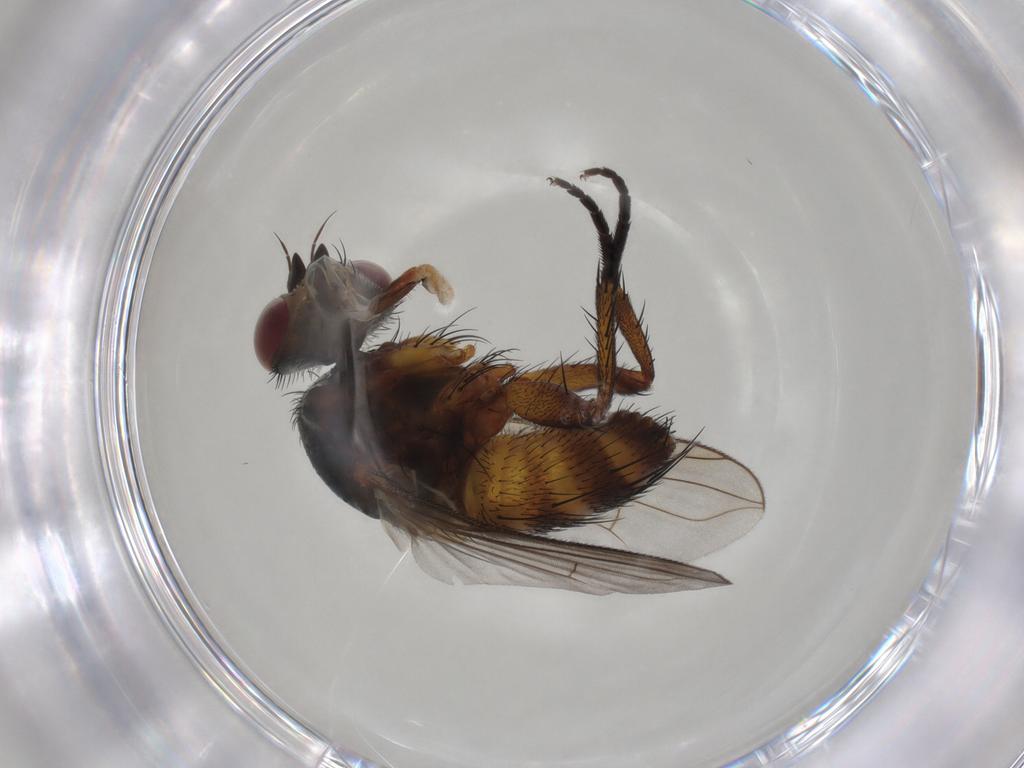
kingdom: Animalia
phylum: Arthropoda
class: Insecta
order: Diptera
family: Tachinidae
